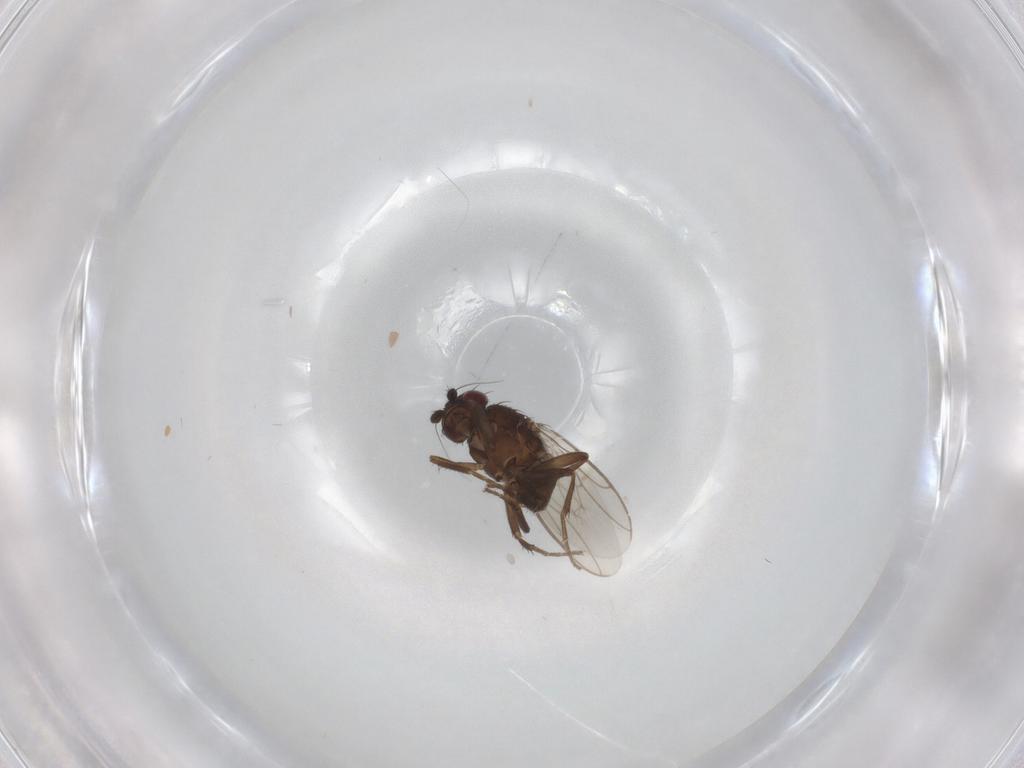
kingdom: Animalia
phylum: Arthropoda
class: Insecta
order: Diptera
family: Sphaeroceridae
